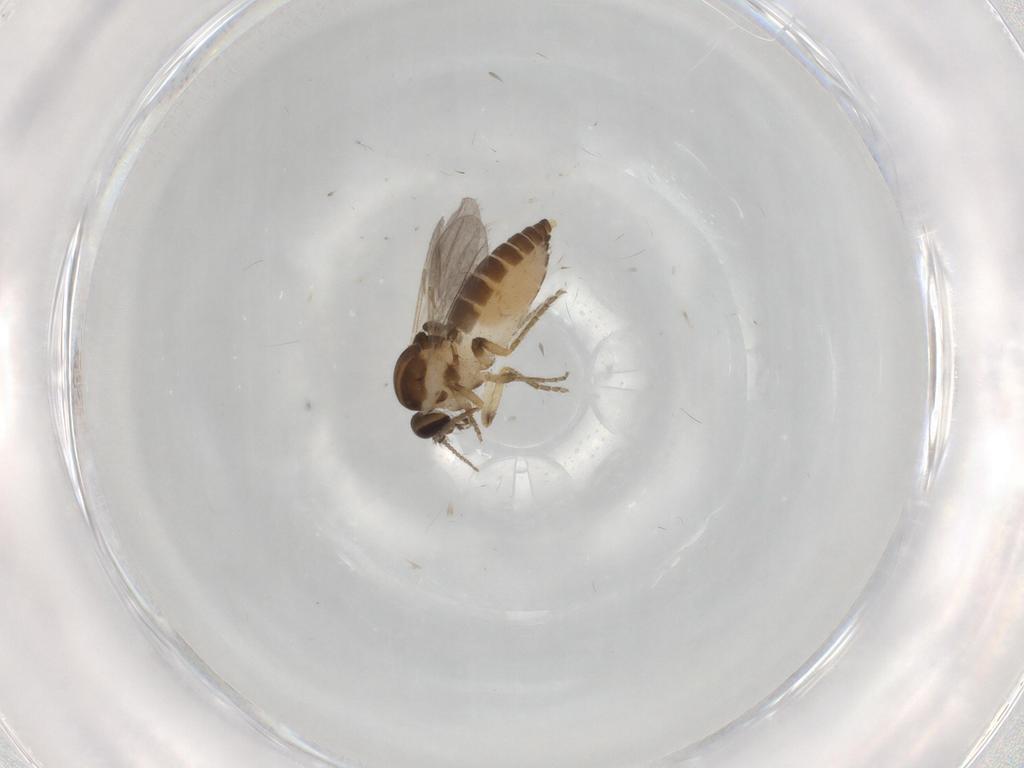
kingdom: Animalia
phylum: Arthropoda
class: Insecta
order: Diptera
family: Ceratopogonidae
